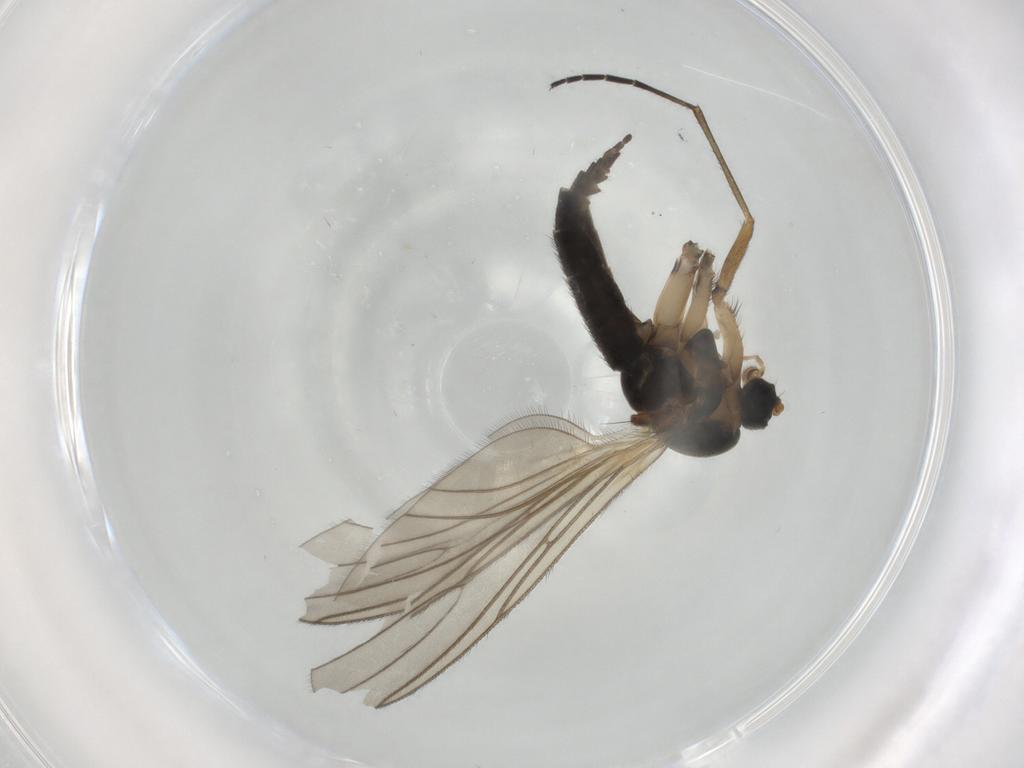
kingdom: Animalia
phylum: Arthropoda
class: Insecta
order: Diptera
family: Sciaridae
